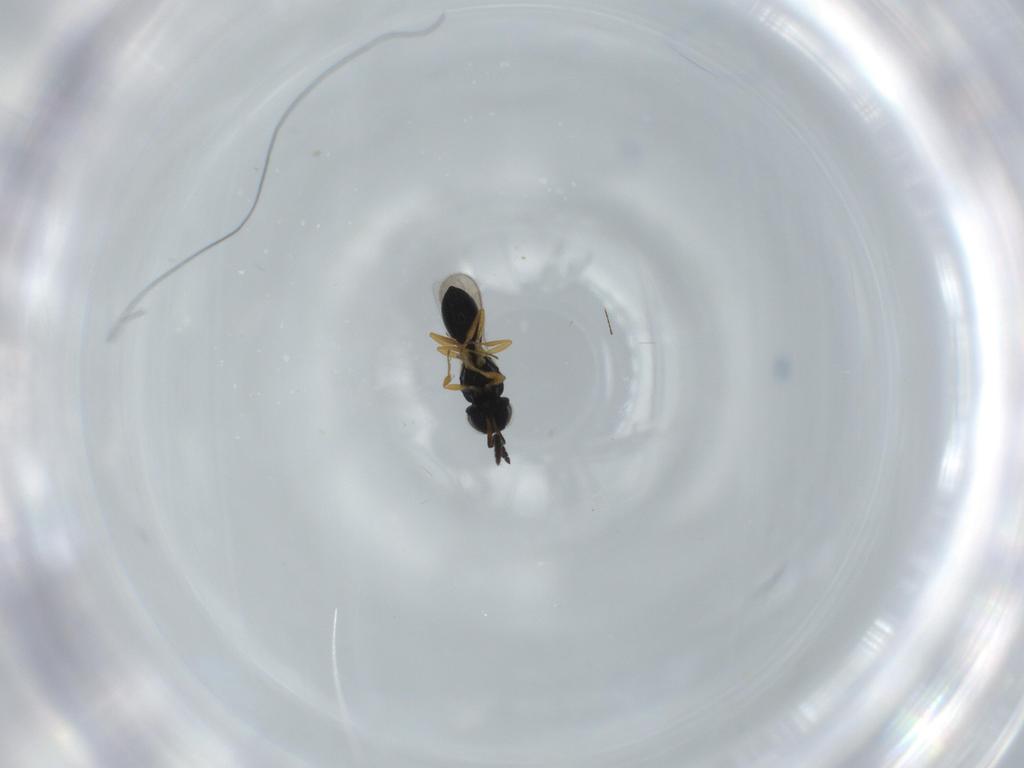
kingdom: Animalia
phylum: Arthropoda
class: Insecta
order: Hymenoptera
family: Scelionidae
